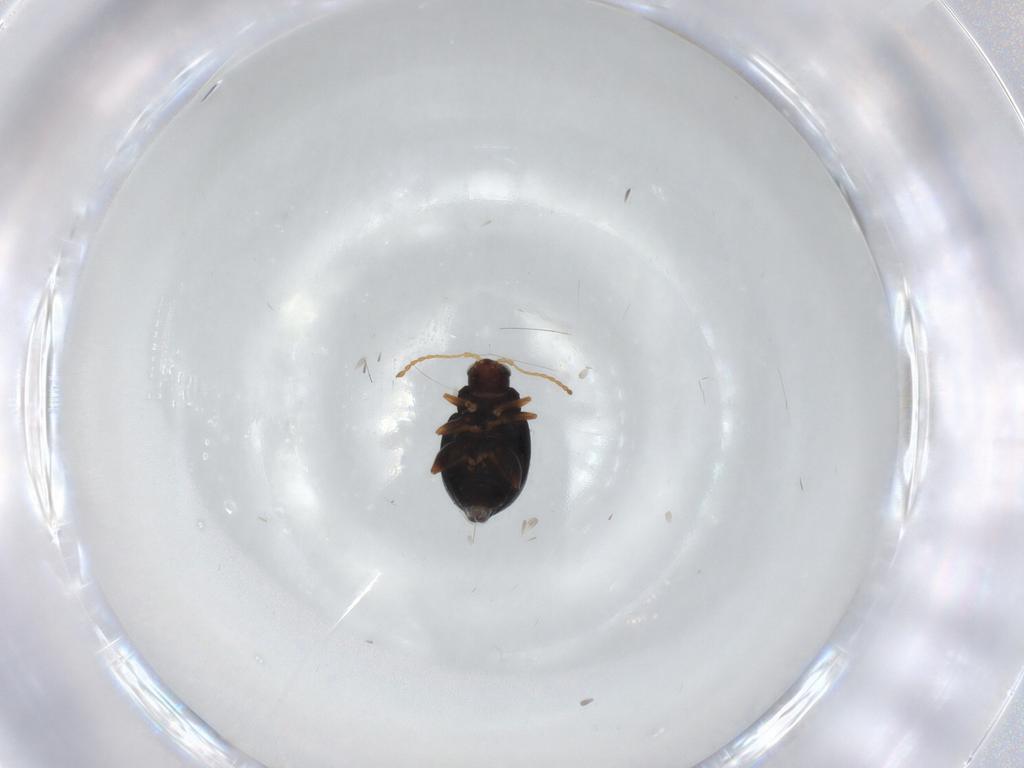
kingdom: Animalia
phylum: Arthropoda
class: Insecta
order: Coleoptera
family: Chrysomelidae
